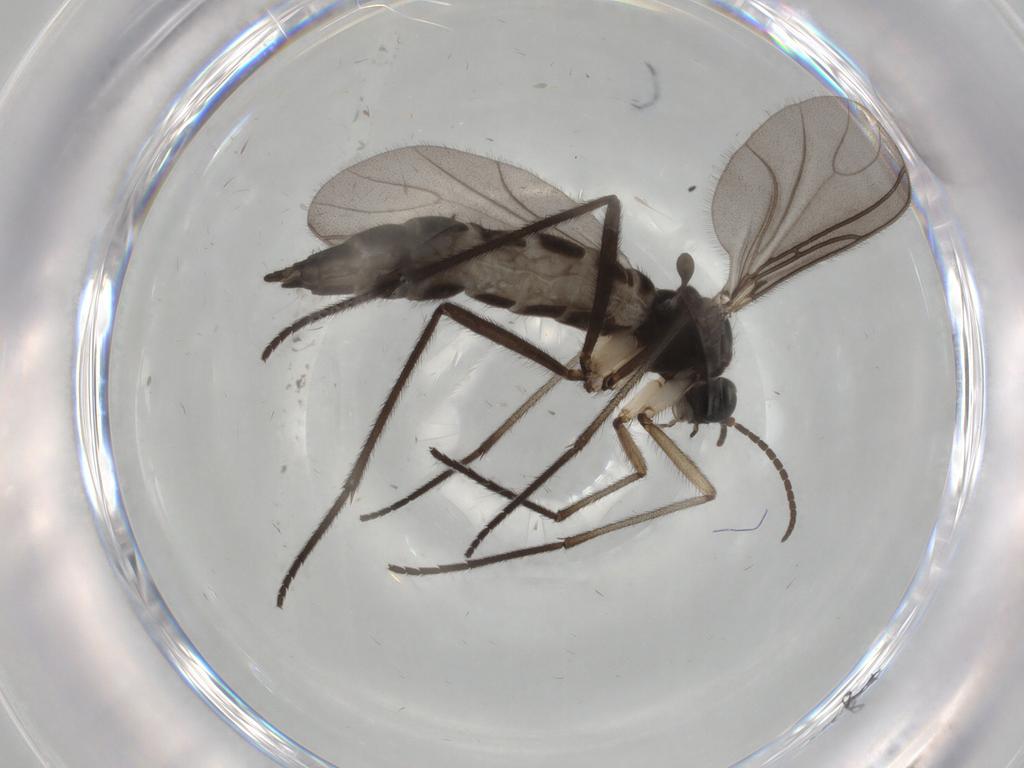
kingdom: Animalia
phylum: Arthropoda
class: Insecta
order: Diptera
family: Sciaridae
